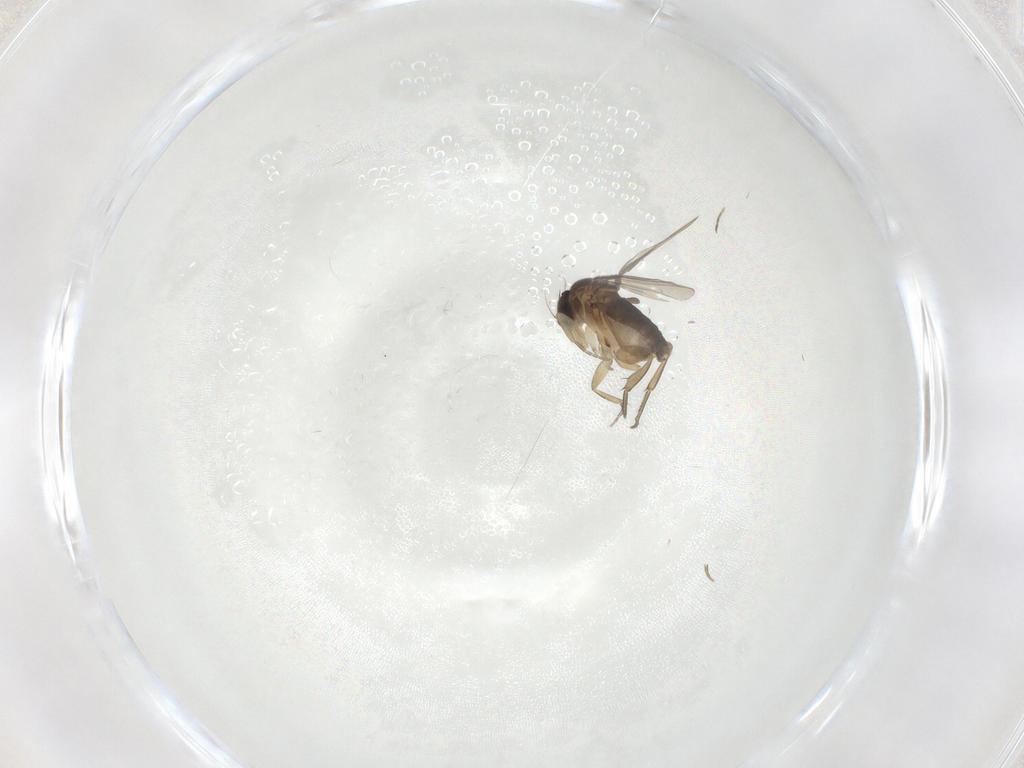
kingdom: Animalia
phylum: Arthropoda
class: Insecta
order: Diptera
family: Phoridae
